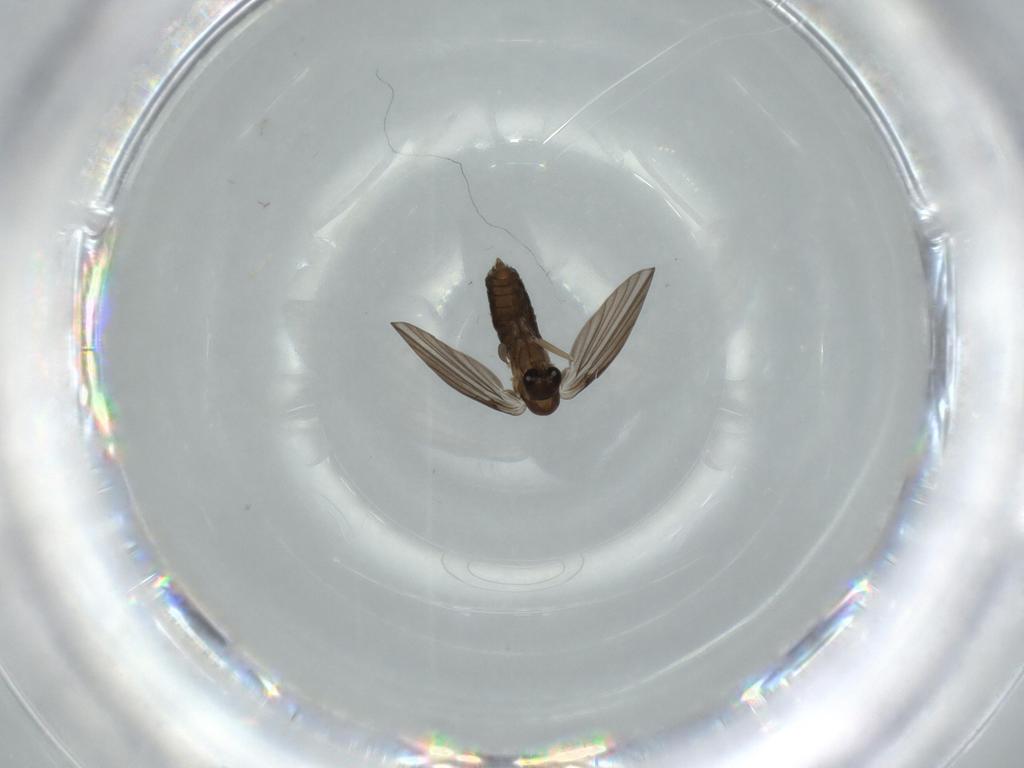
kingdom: Animalia
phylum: Arthropoda
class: Insecta
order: Diptera
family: Psychodidae
